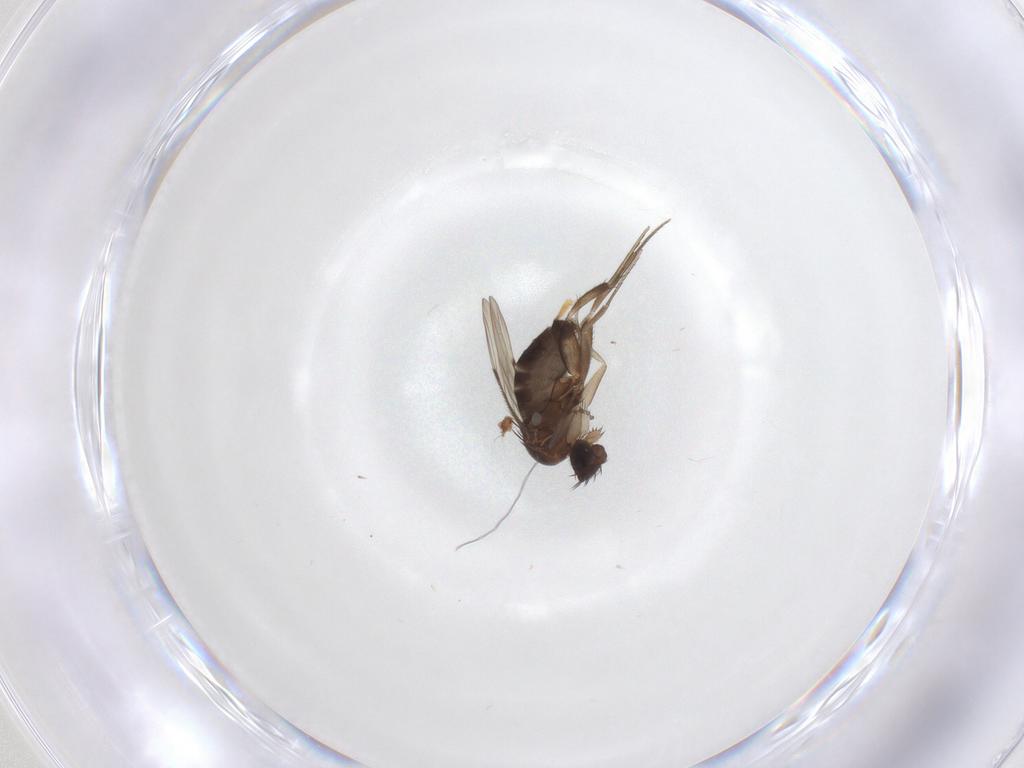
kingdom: Animalia
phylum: Arthropoda
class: Insecta
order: Diptera
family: Phoridae
